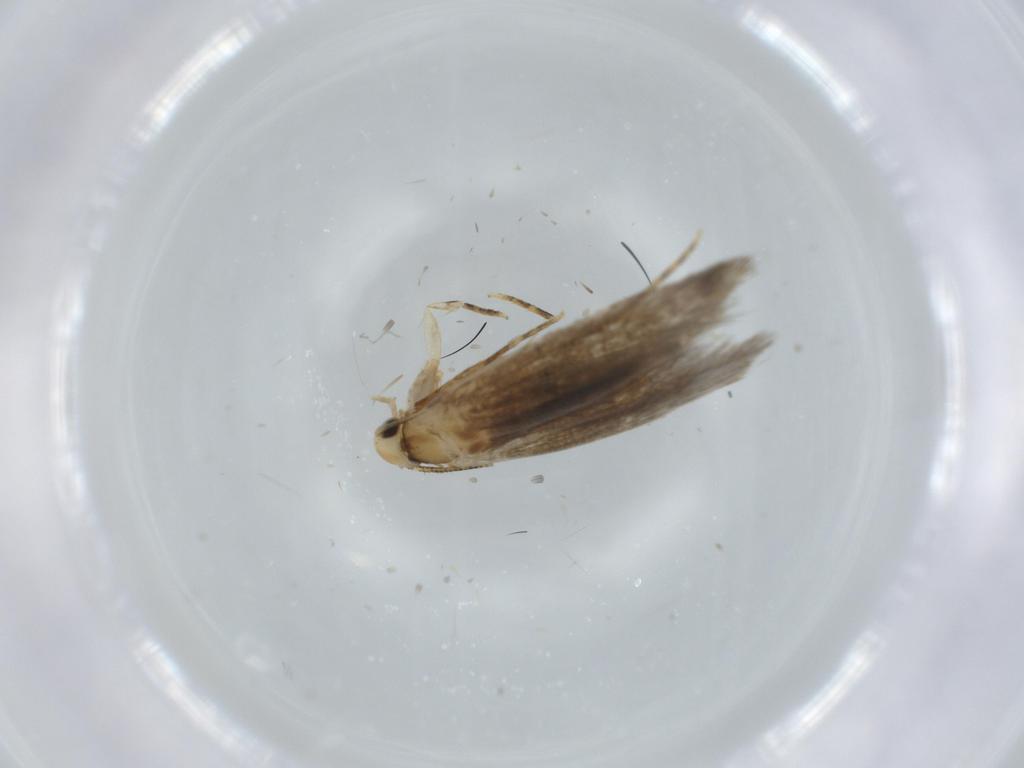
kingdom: Animalia
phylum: Arthropoda
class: Insecta
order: Lepidoptera
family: Tineidae
